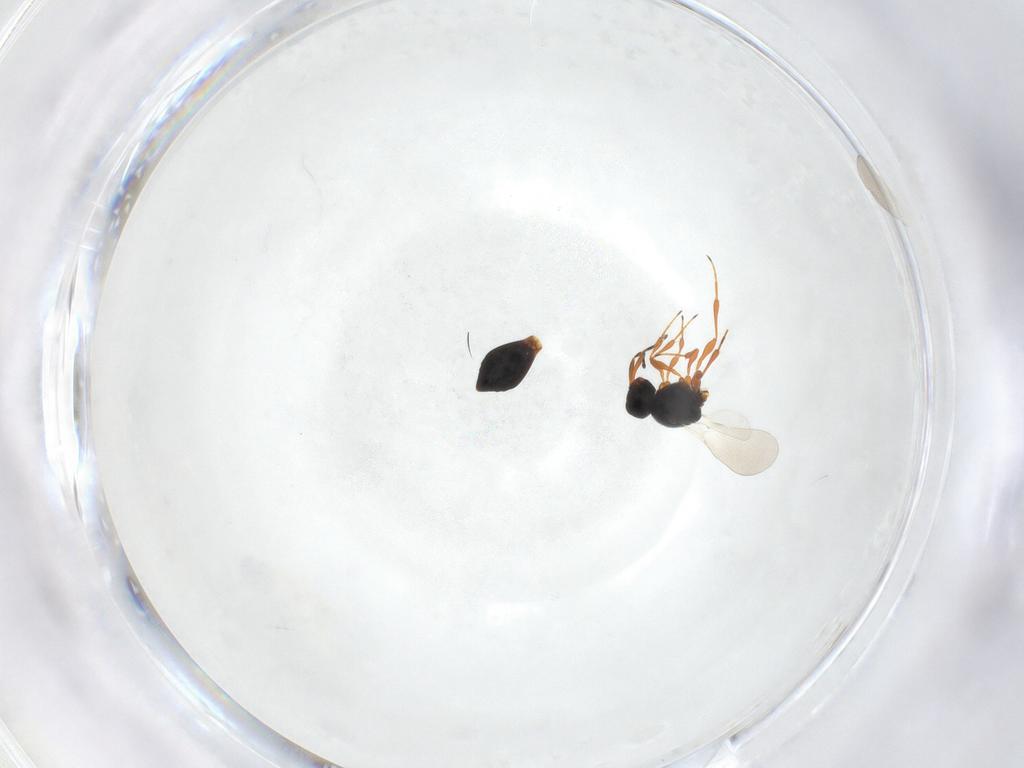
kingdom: Animalia
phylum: Arthropoda
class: Insecta
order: Hymenoptera
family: Platygastridae
